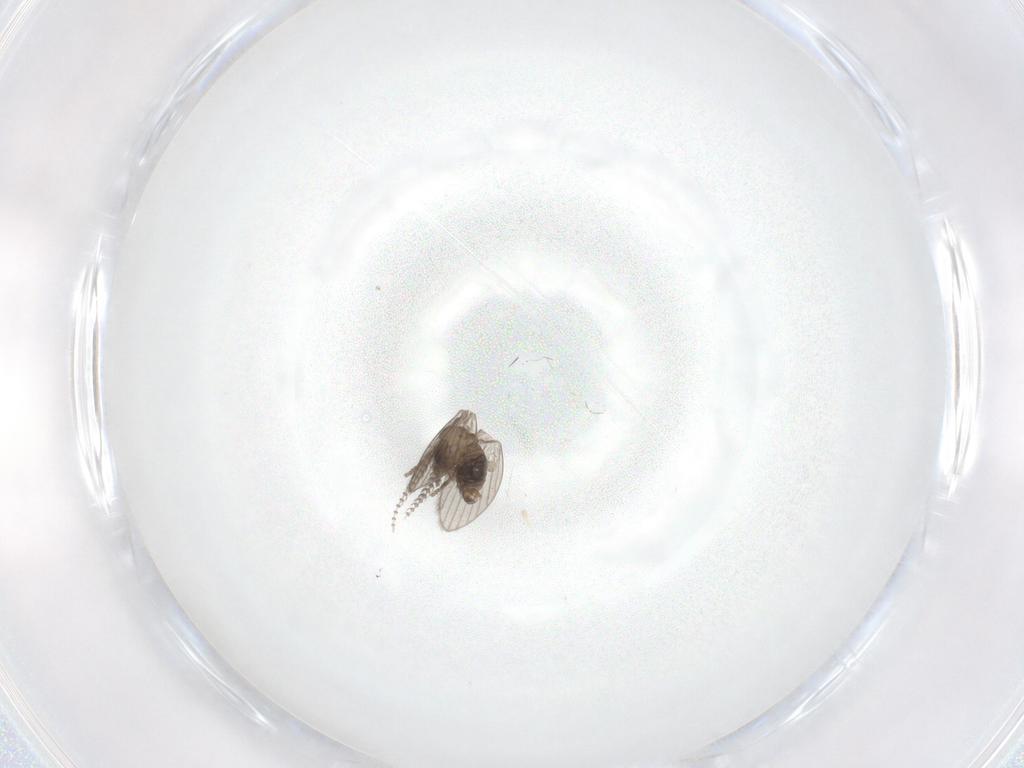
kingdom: Animalia
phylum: Arthropoda
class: Insecta
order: Diptera
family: Psychodidae
